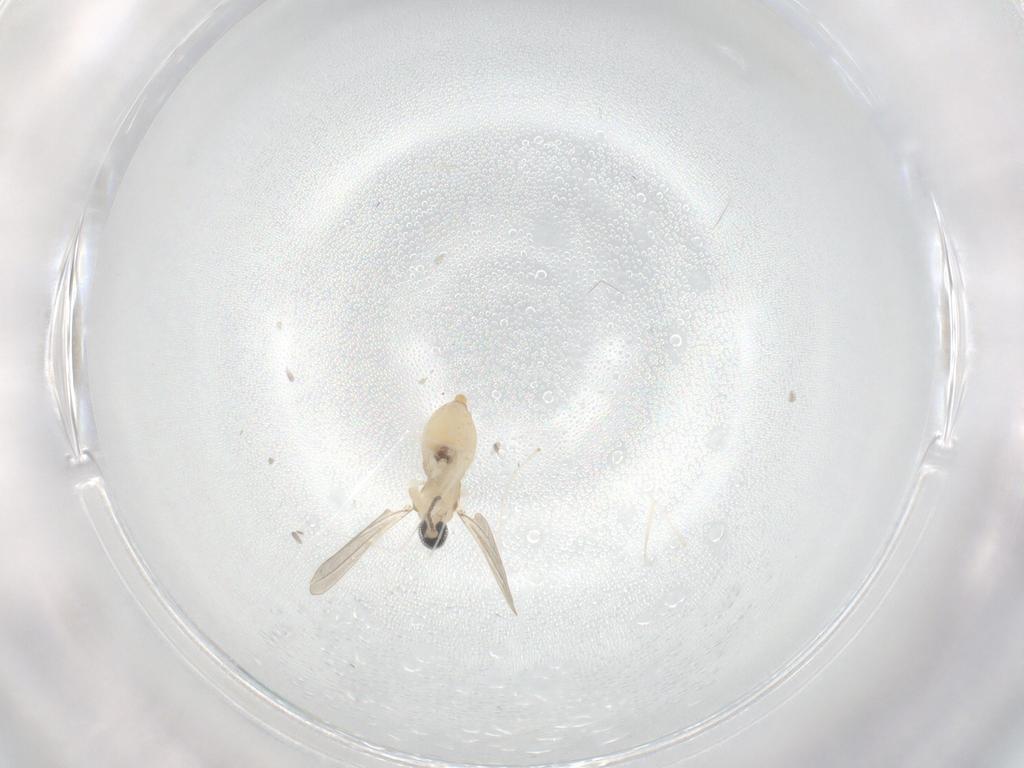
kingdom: Animalia
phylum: Arthropoda
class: Insecta
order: Diptera
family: Cecidomyiidae
